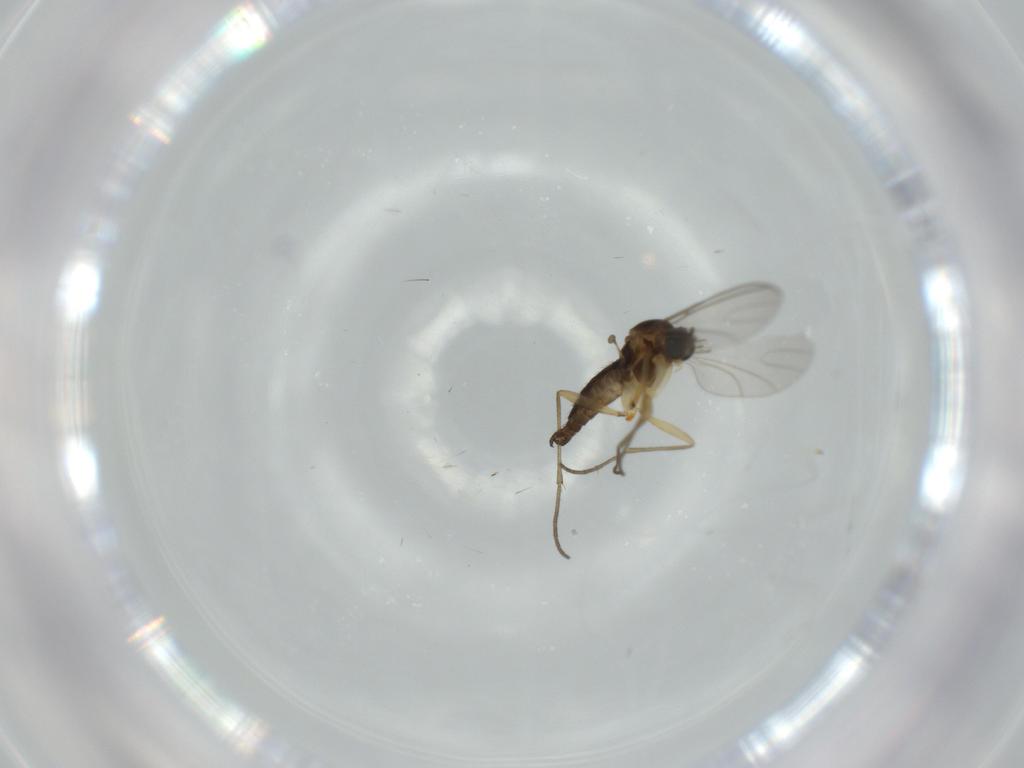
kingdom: Animalia
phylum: Arthropoda
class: Insecta
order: Diptera
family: Sciaridae
